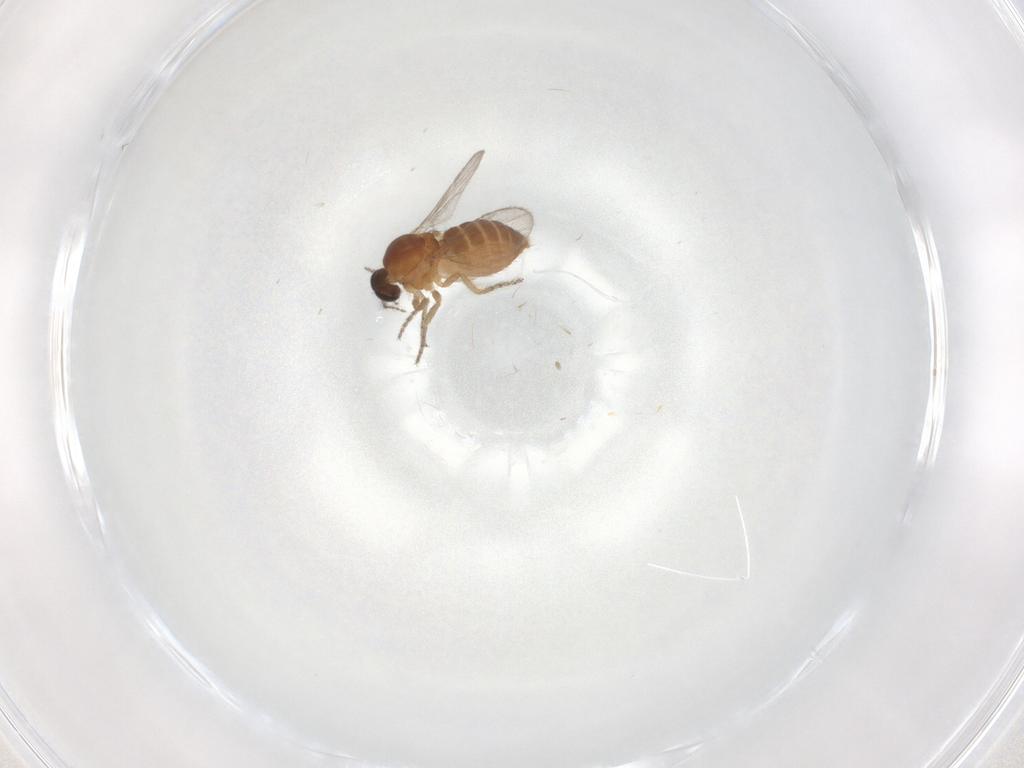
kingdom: Animalia
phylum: Arthropoda
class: Insecta
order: Diptera
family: Ceratopogonidae
